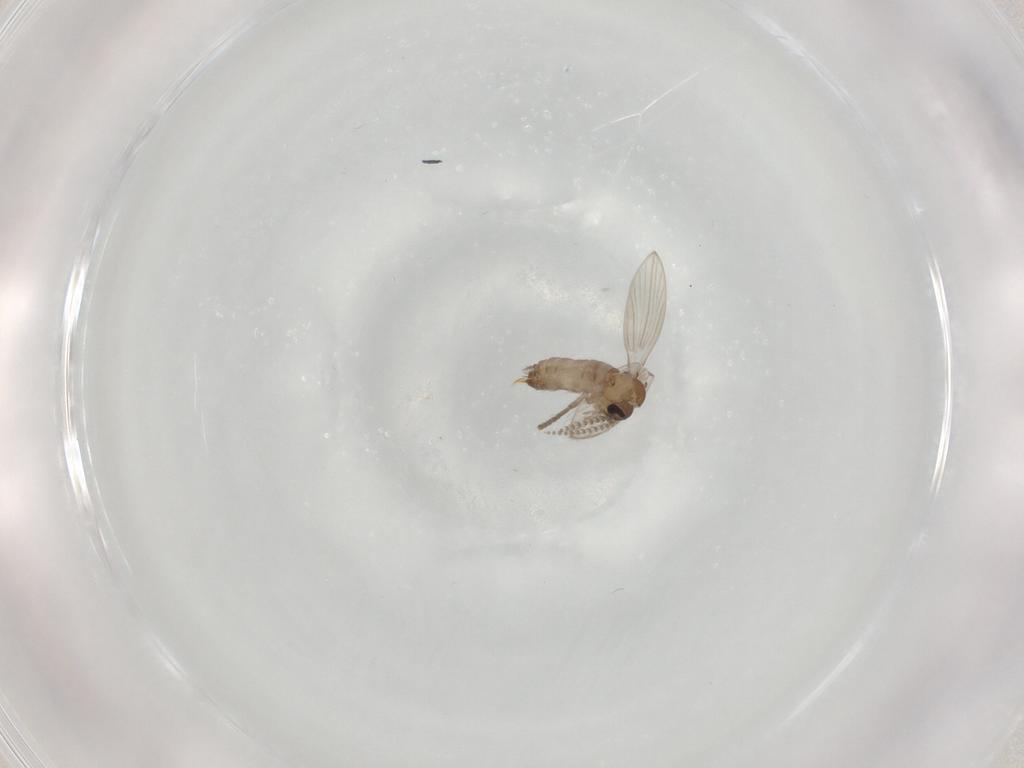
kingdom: Animalia
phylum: Arthropoda
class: Insecta
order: Diptera
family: Psychodidae
